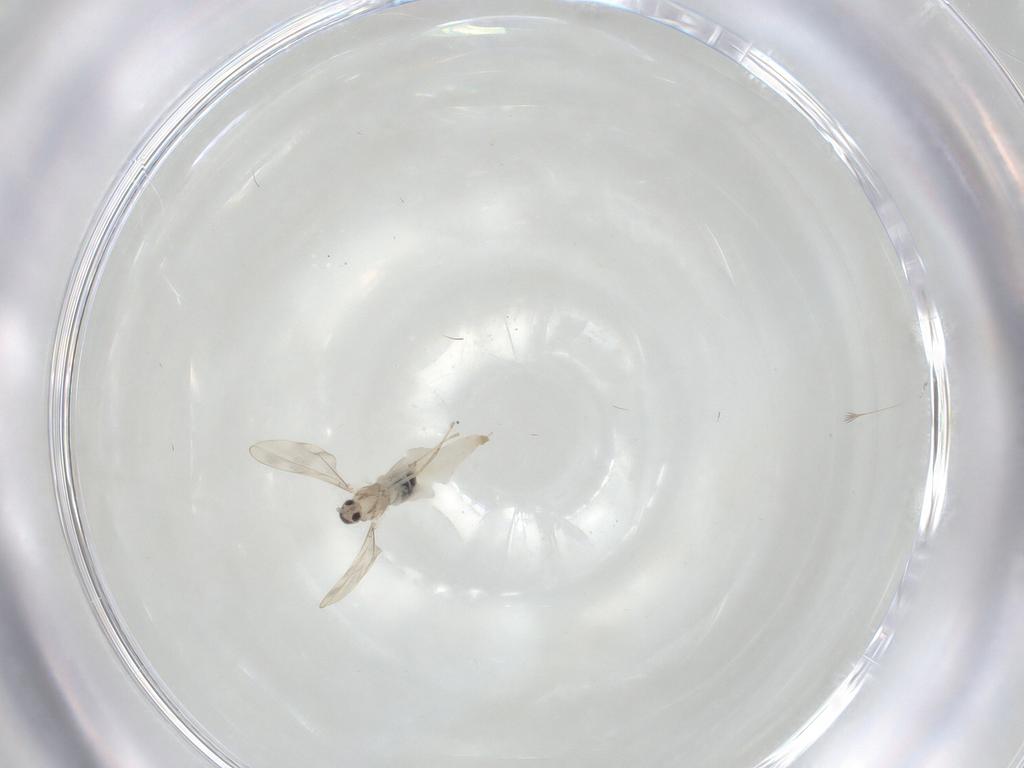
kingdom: Animalia
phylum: Arthropoda
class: Insecta
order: Diptera
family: Cecidomyiidae
